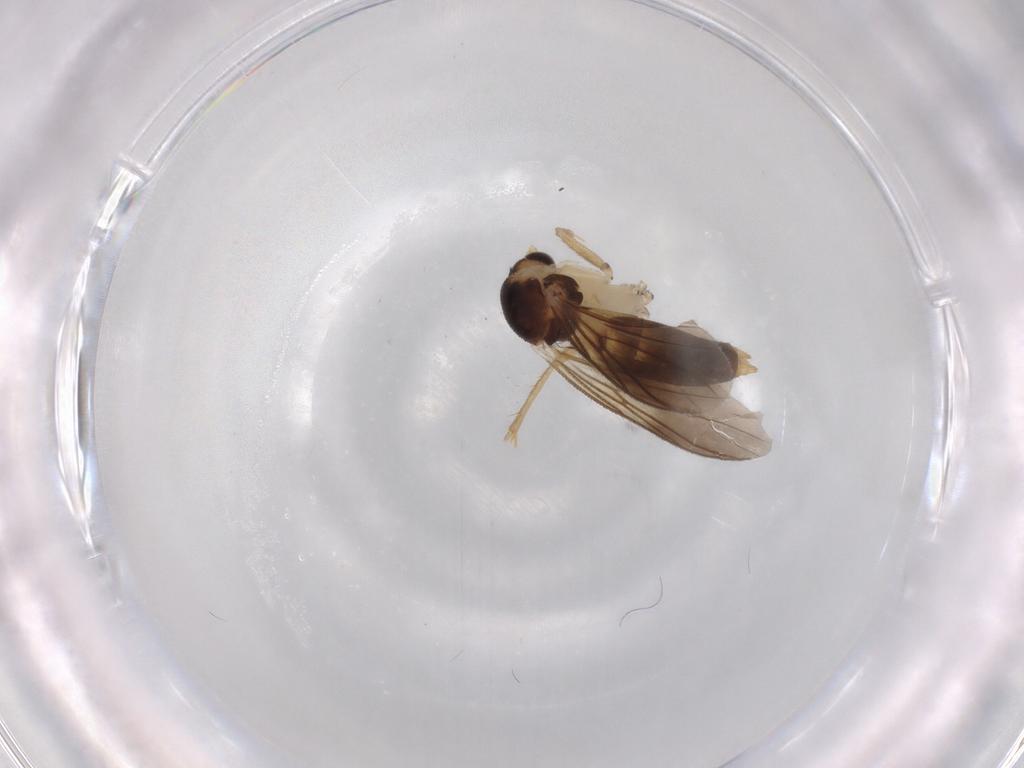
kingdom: Animalia
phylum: Arthropoda
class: Insecta
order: Diptera
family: Mycetophilidae
